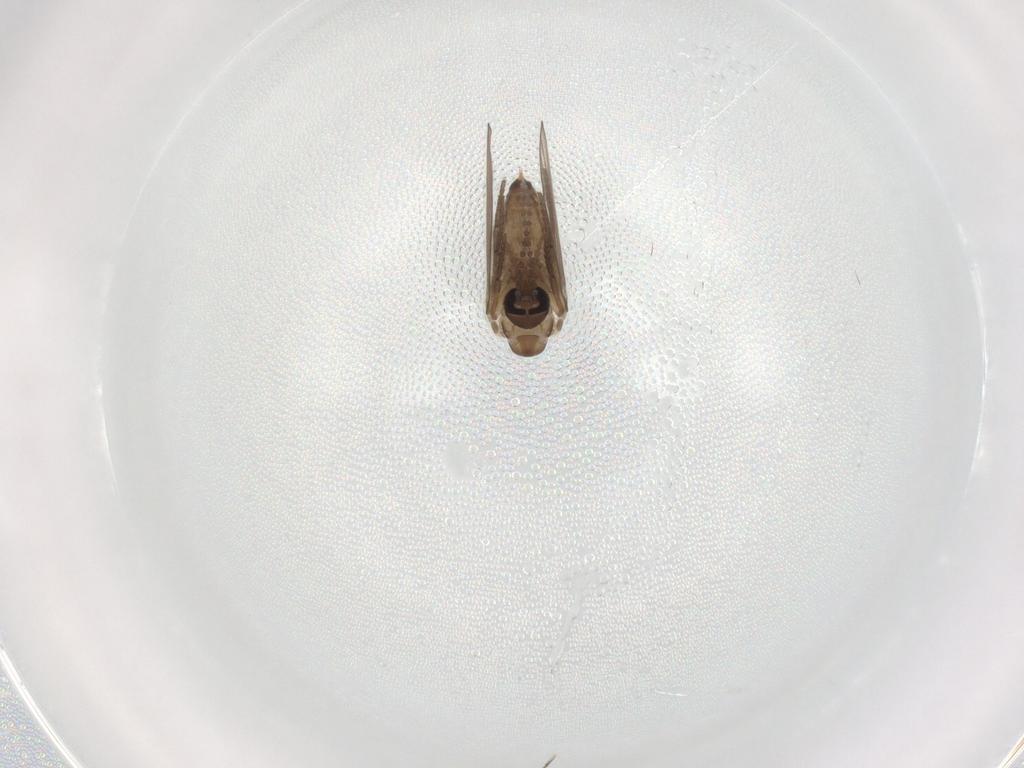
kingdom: Animalia
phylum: Arthropoda
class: Insecta
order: Diptera
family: Psychodidae
